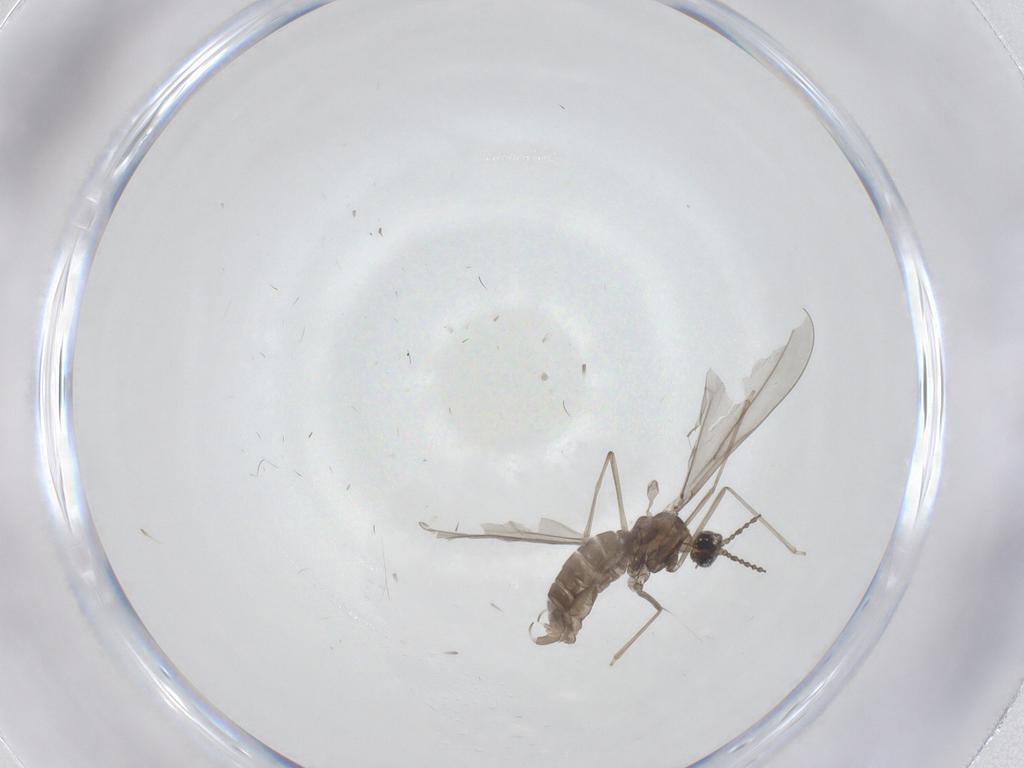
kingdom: Animalia
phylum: Arthropoda
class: Insecta
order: Diptera
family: Cecidomyiidae
